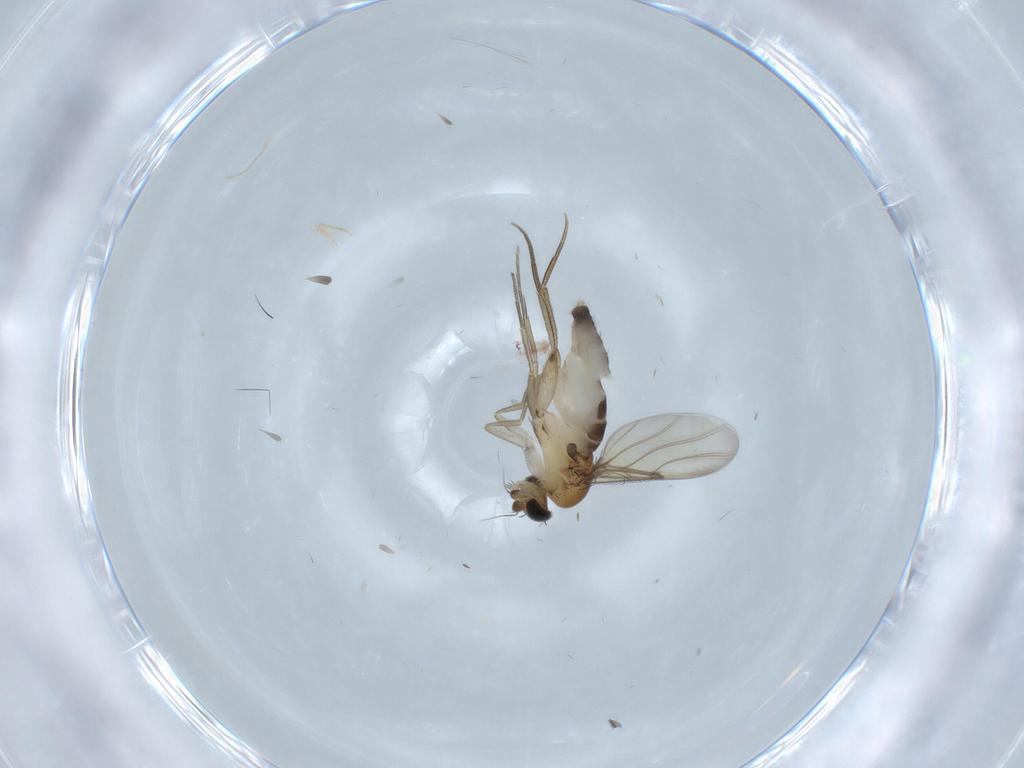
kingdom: Animalia
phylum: Arthropoda
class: Insecta
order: Diptera
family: Phoridae
